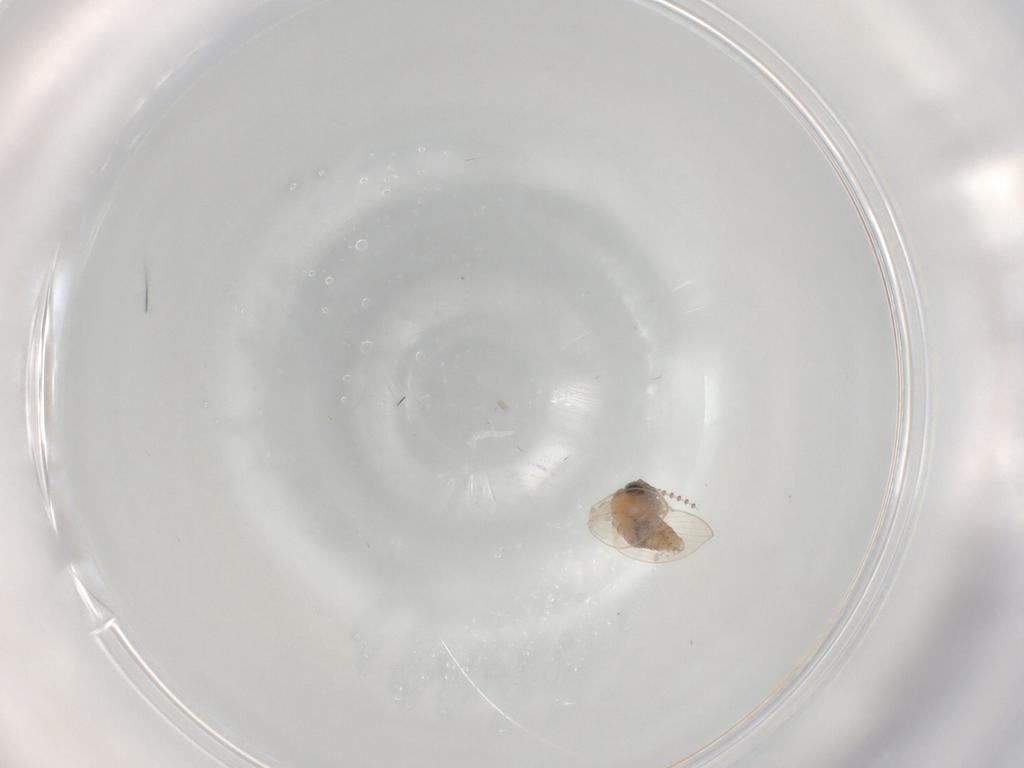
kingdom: Animalia
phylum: Arthropoda
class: Insecta
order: Diptera
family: Psychodidae
